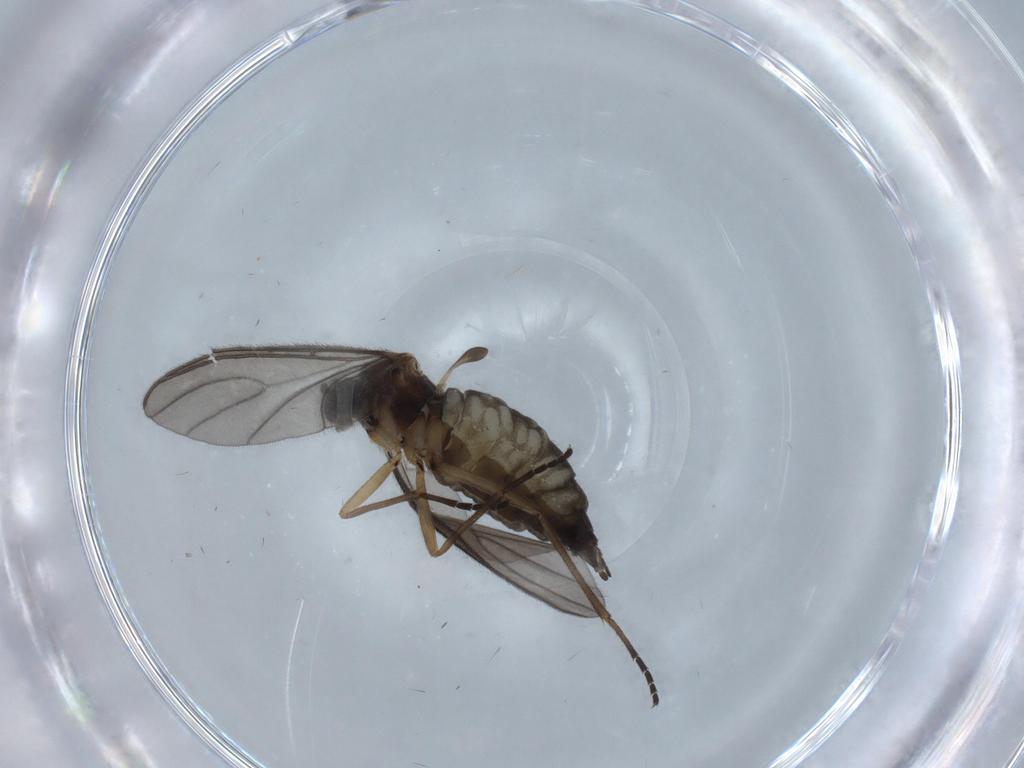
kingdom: Animalia
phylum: Arthropoda
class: Insecta
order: Diptera
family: Sciaridae
